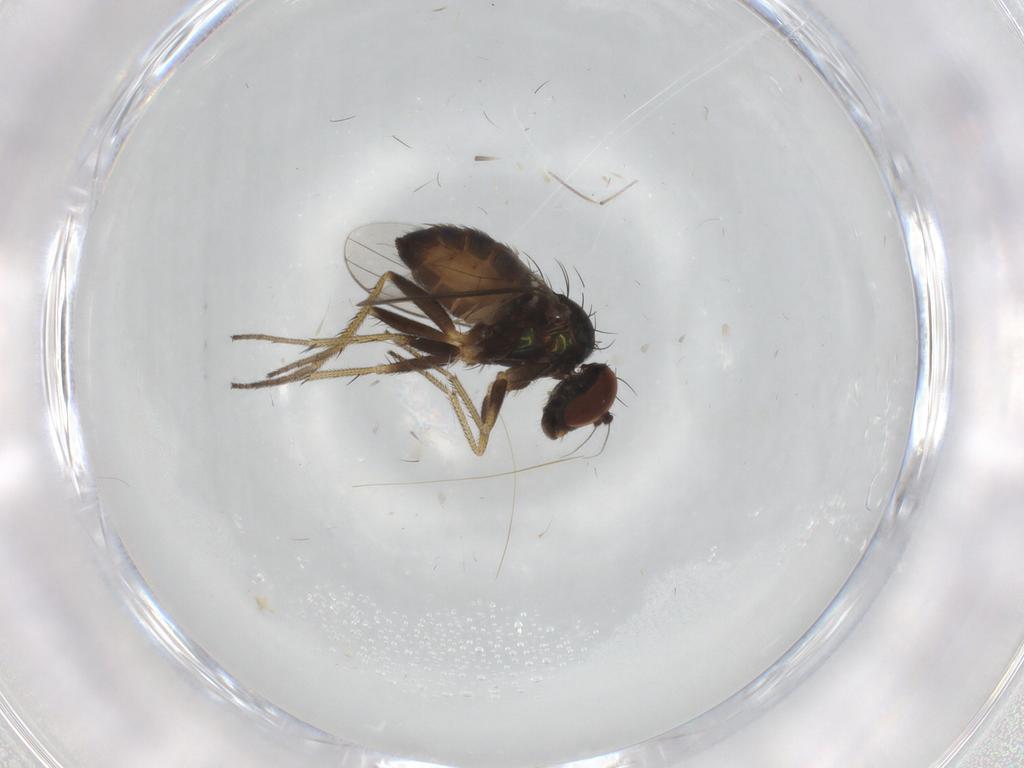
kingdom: Animalia
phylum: Arthropoda
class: Insecta
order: Diptera
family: Dolichopodidae
